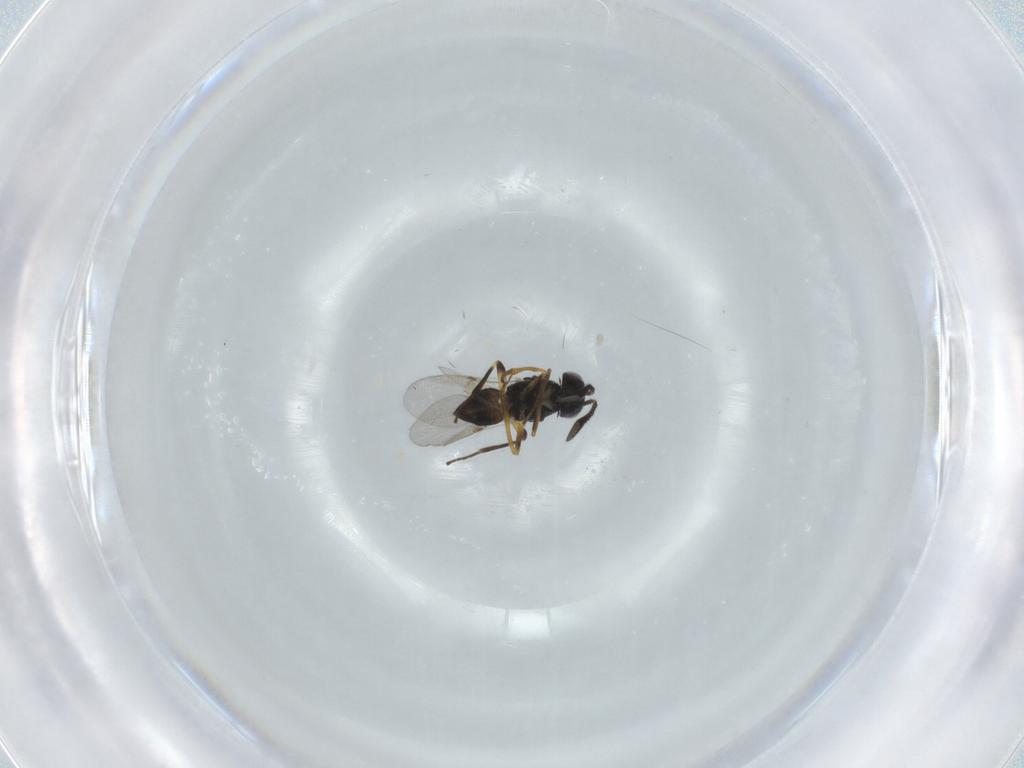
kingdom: Animalia
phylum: Arthropoda
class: Insecta
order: Hymenoptera
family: Encyrtidae
